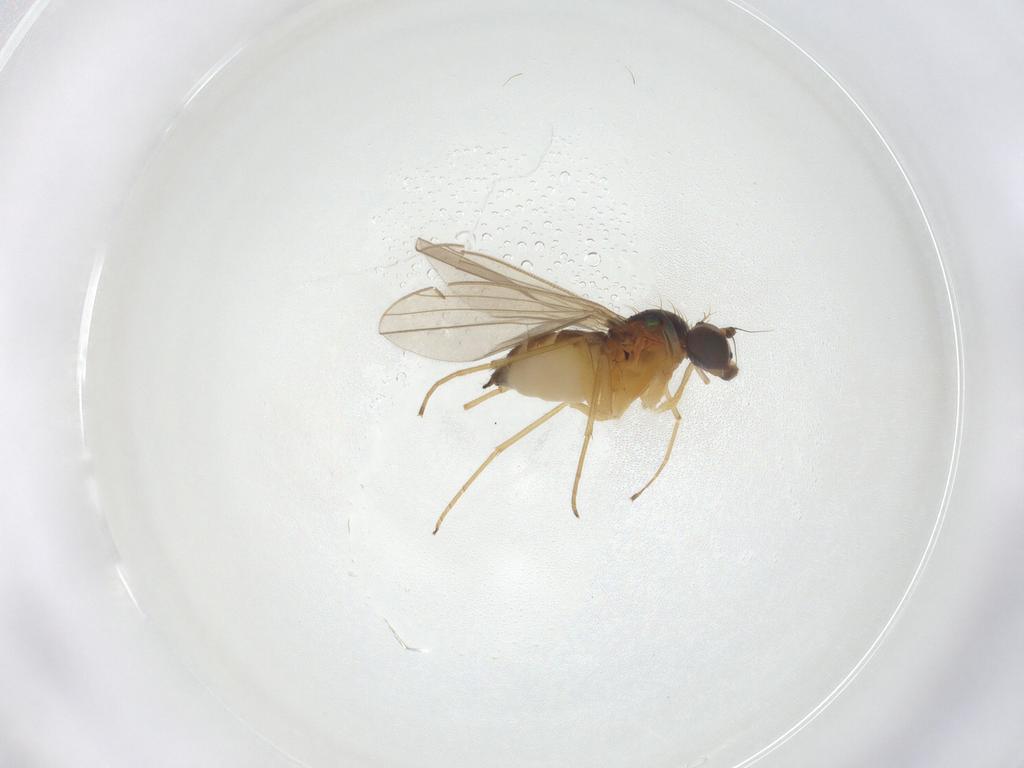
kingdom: Animalia
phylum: Arthropoda
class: Insecta
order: Diptera
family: Dolichopodidae
